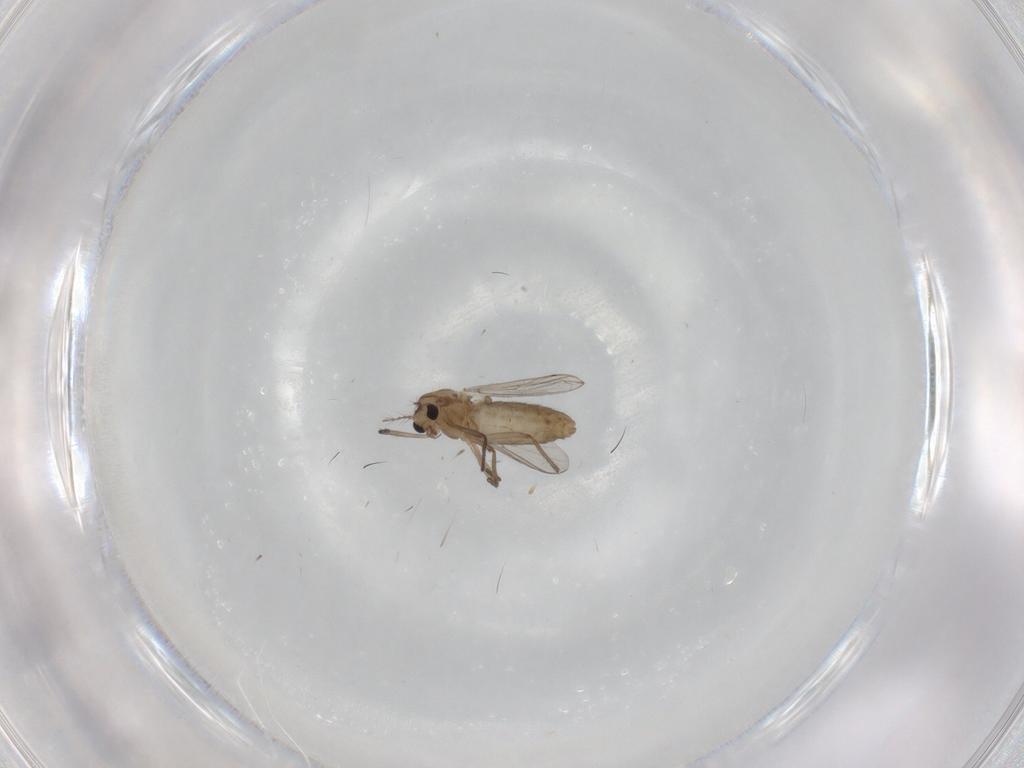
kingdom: Animalia
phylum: Arthropoda
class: Insecta
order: Diptera
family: Chironomidae
